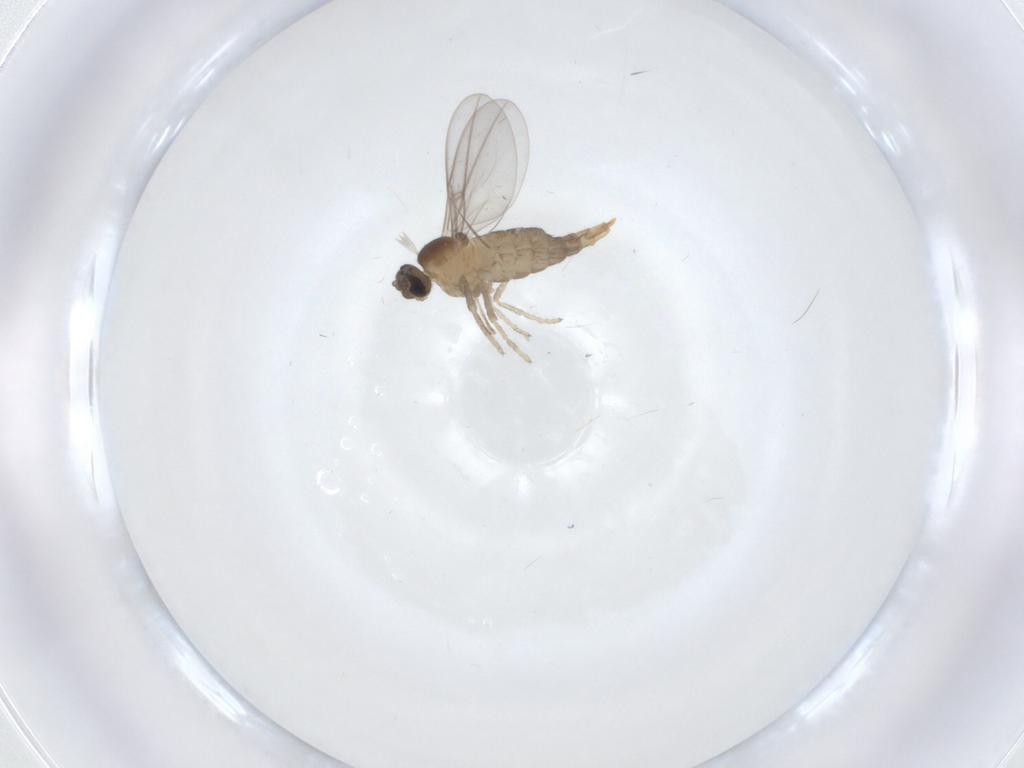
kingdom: Animalia
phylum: Arthropoda
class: Insecta
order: Diptera
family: Cecidomyiidae
